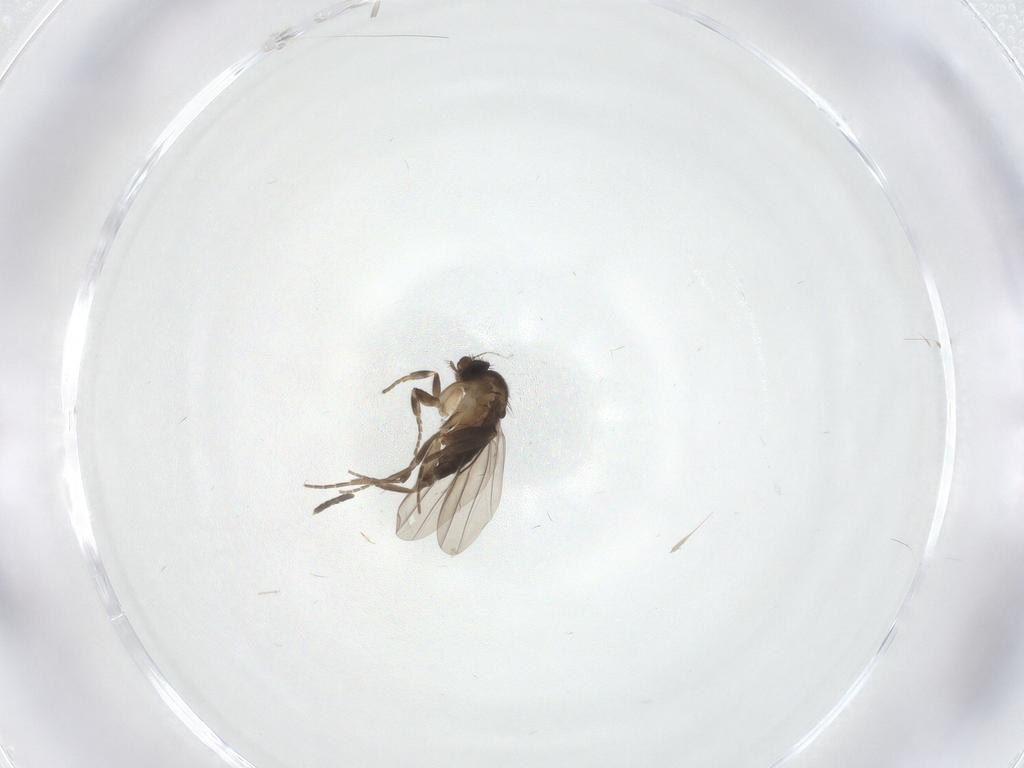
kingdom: Animalia
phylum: Arthropoda
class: Insecta
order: Diptera
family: Phoridae
